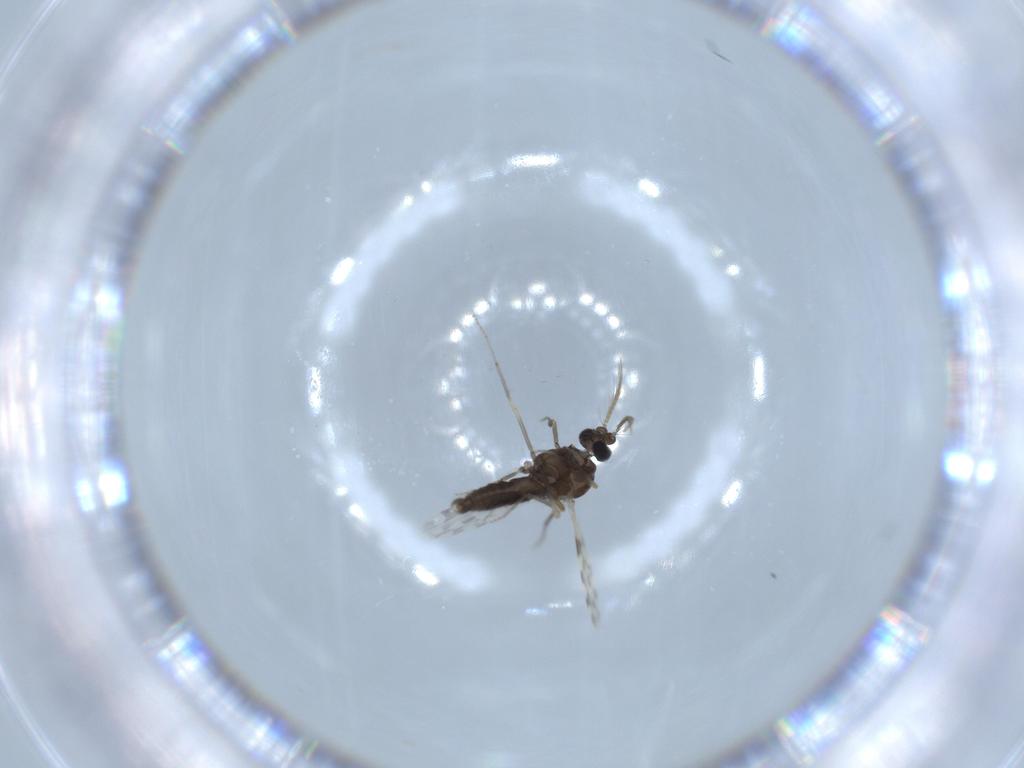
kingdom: Animalia
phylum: Arthropoda
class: Insecta
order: Diptera
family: Ceratopogonidae
